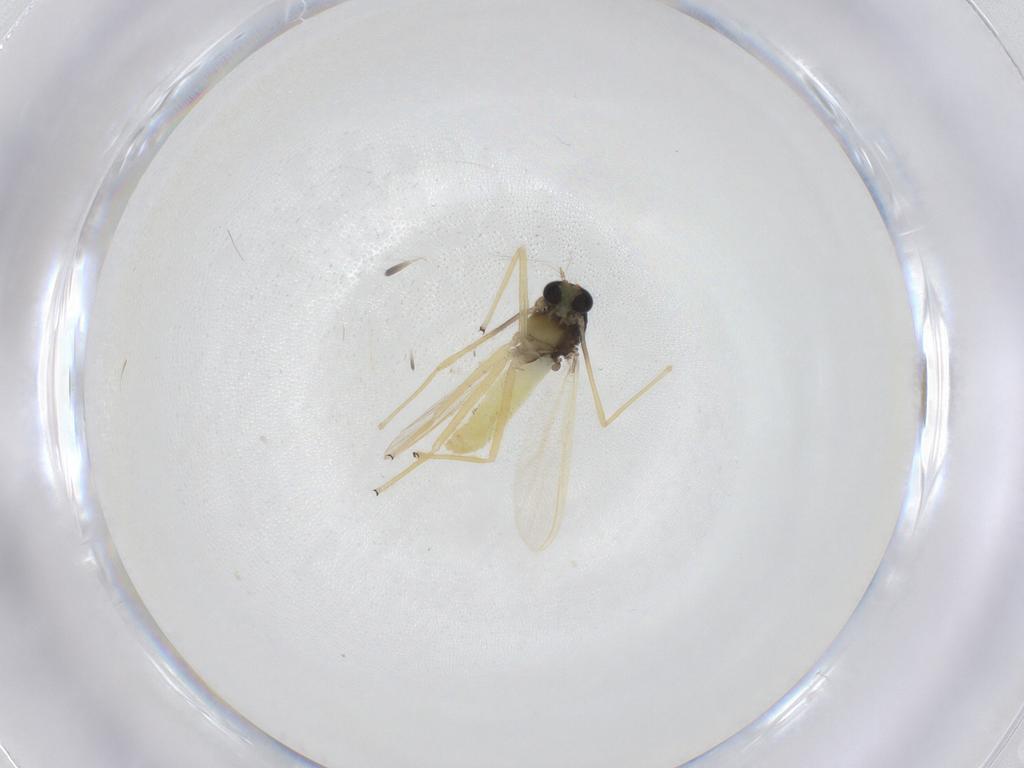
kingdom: Animalia
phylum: Arthropoda
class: Insecta
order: Diptera
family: Chironomidae
